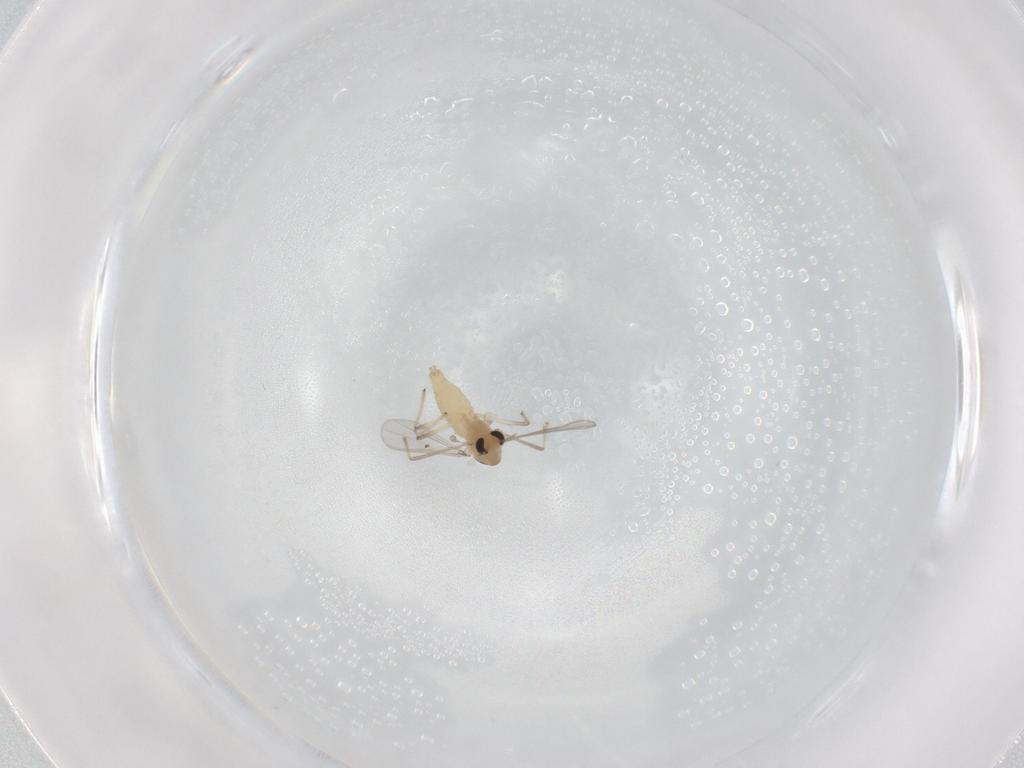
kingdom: Animalia
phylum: Arthropoda
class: Insecta
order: Diptera
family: Chironomidae
